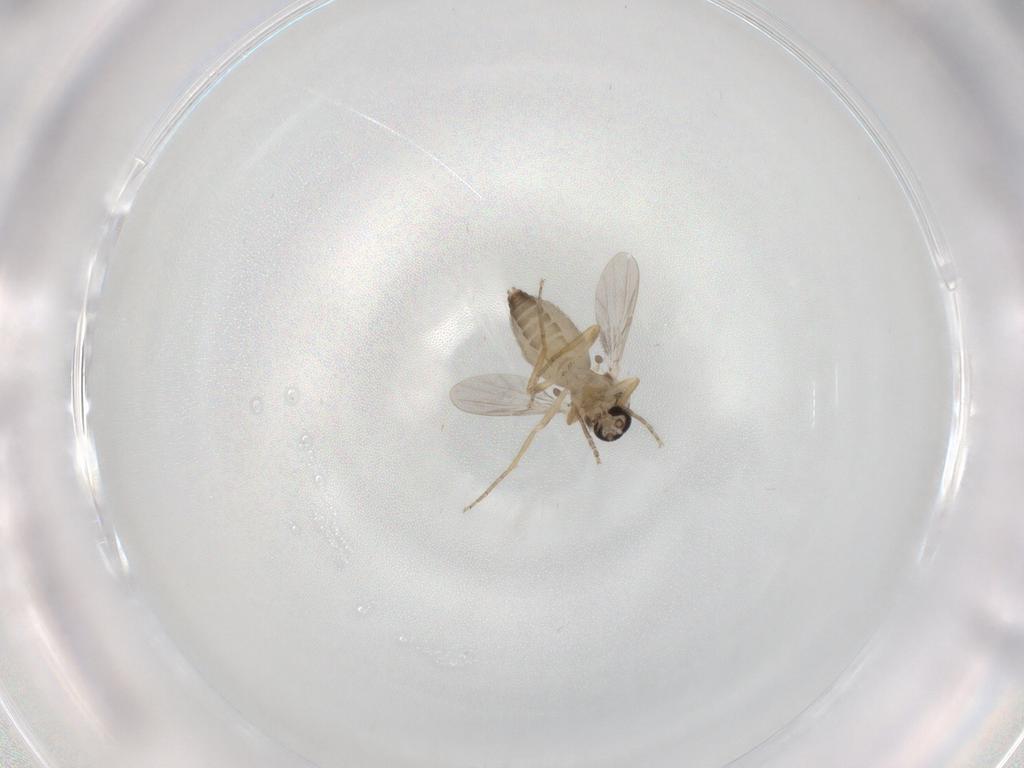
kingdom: Animalia
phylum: Arthropoda
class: Insecta
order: Diptera
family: Ceratopogonidae
